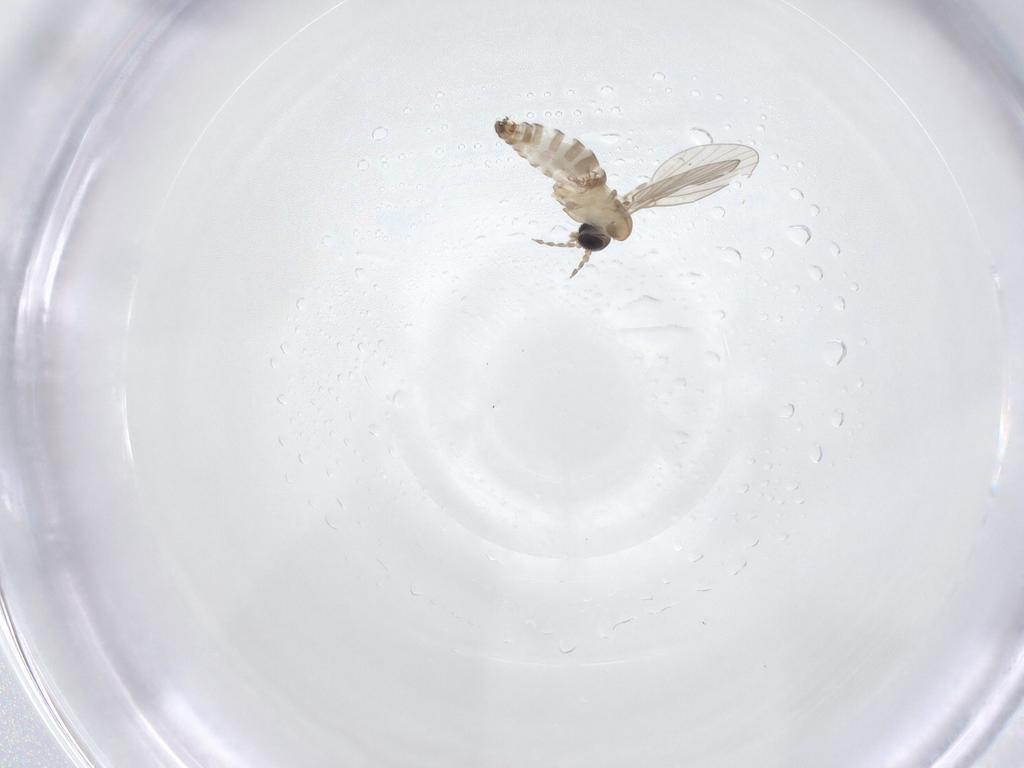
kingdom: Animalia
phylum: Arthropoda
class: Insecta
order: Diptera
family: Psychodidae
